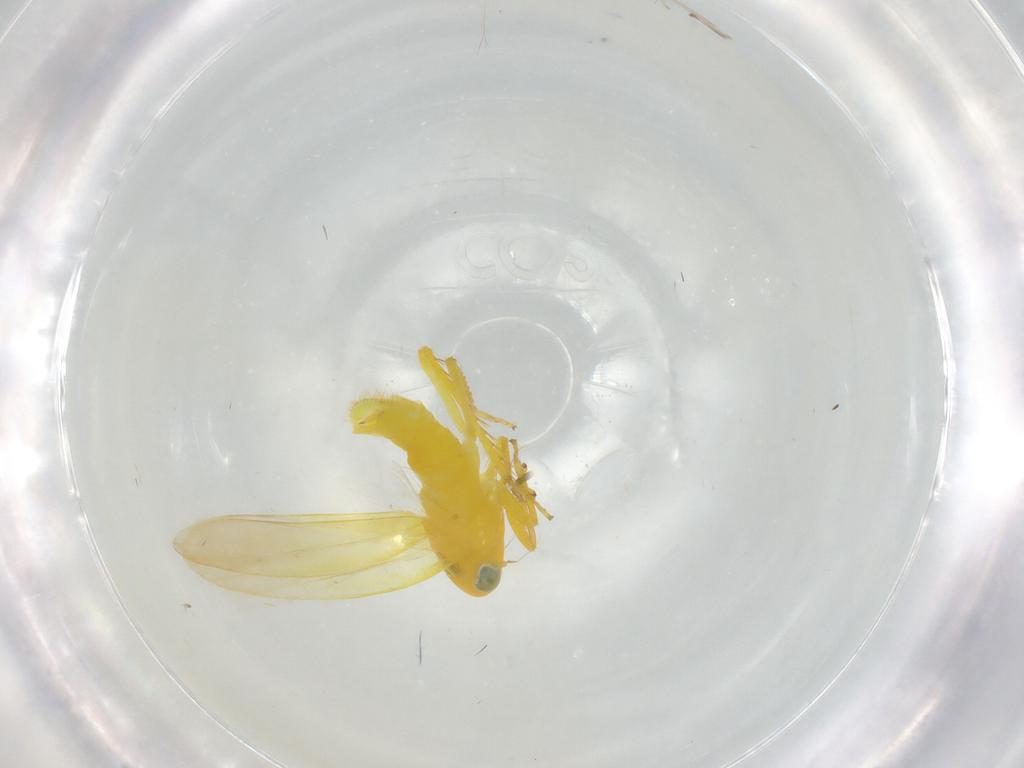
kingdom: Animalia
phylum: Arthropoda
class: Insecta
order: Hemiptera
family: Cicadellidae
